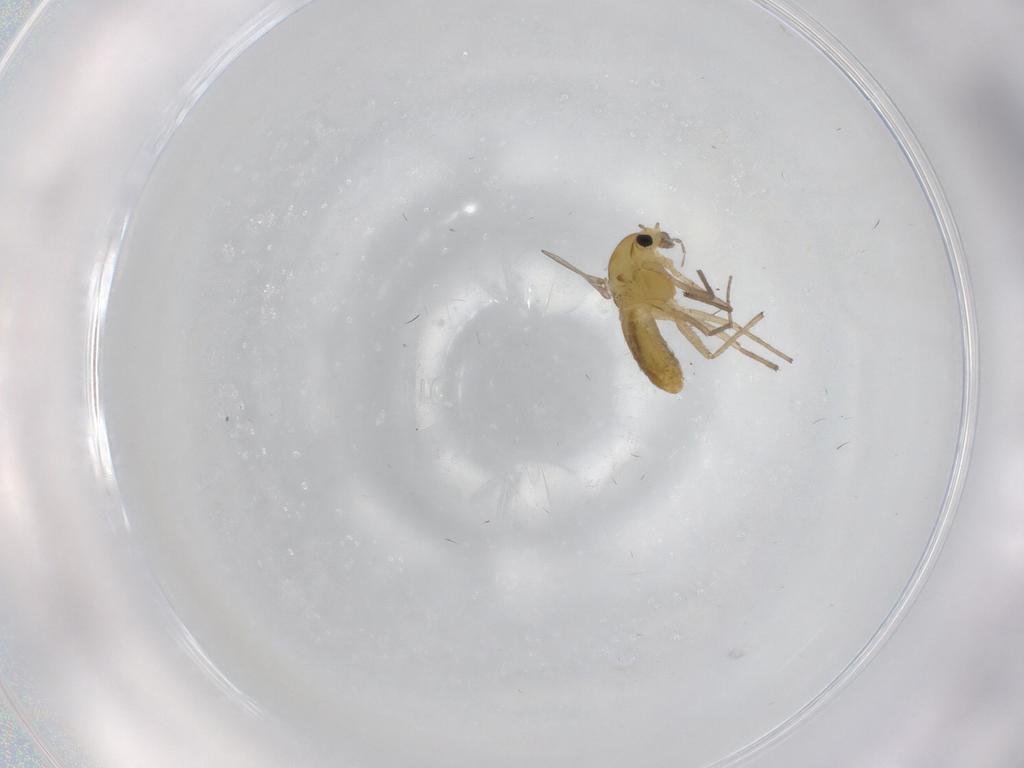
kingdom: Animalia
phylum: Arthropoda
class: Insecta
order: Diptera
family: Chironomidae
